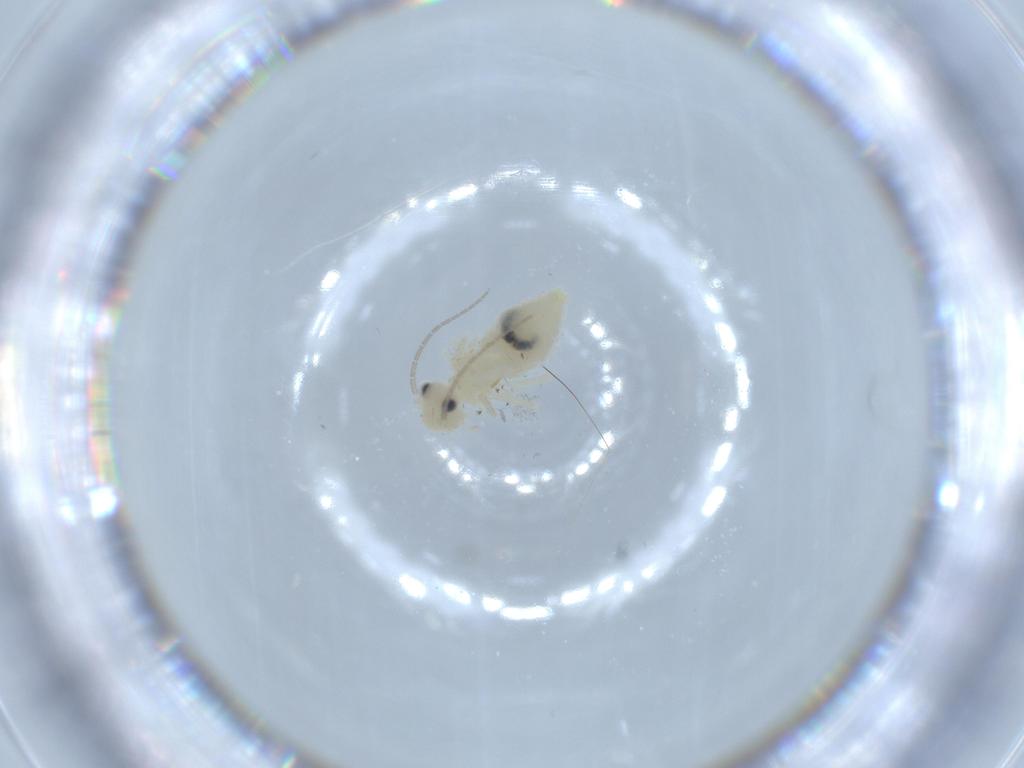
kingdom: Animalia
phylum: Arthropoda
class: Insecta
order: Psocodea
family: Caeciliusidae
